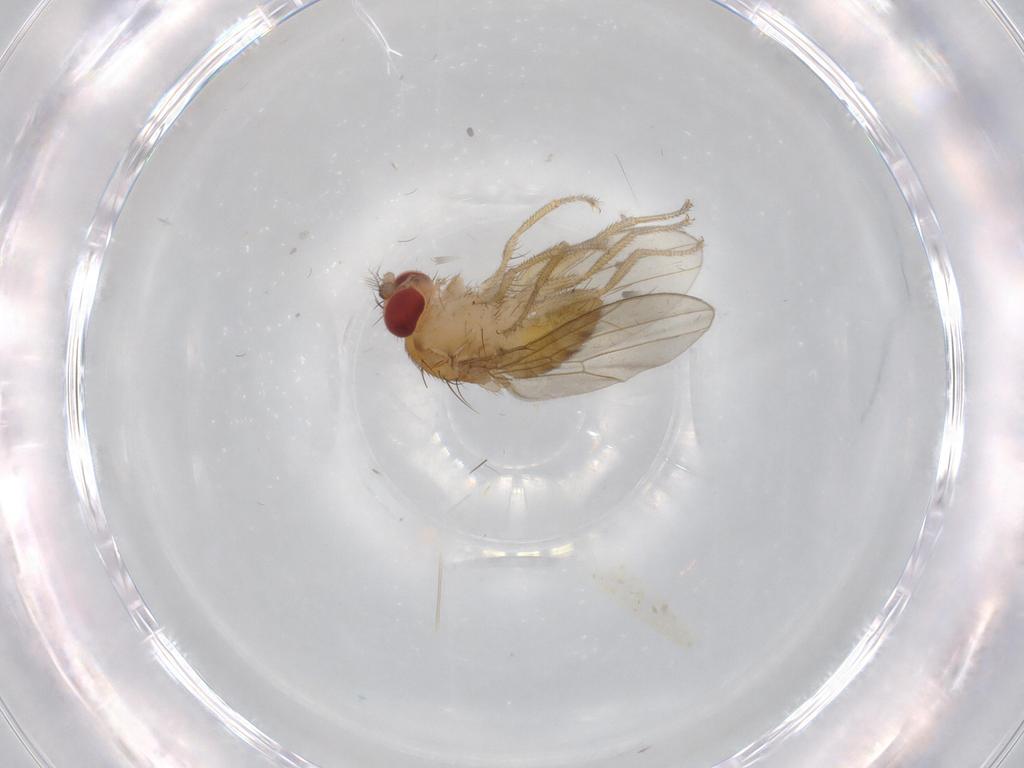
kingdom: Animalia
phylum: Arthropoda
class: Insecta
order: Diptera
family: Drosophilidae
